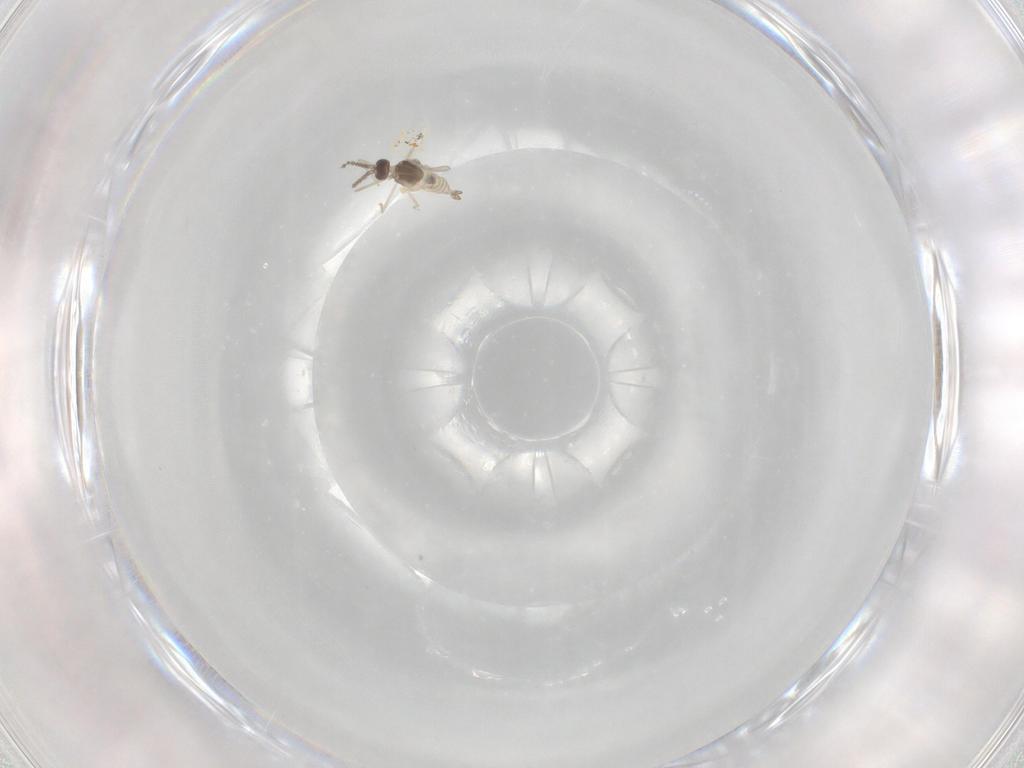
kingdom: Animalia
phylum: Arthropoda
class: Insecta
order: Diptera
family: Cecidomyiidae
